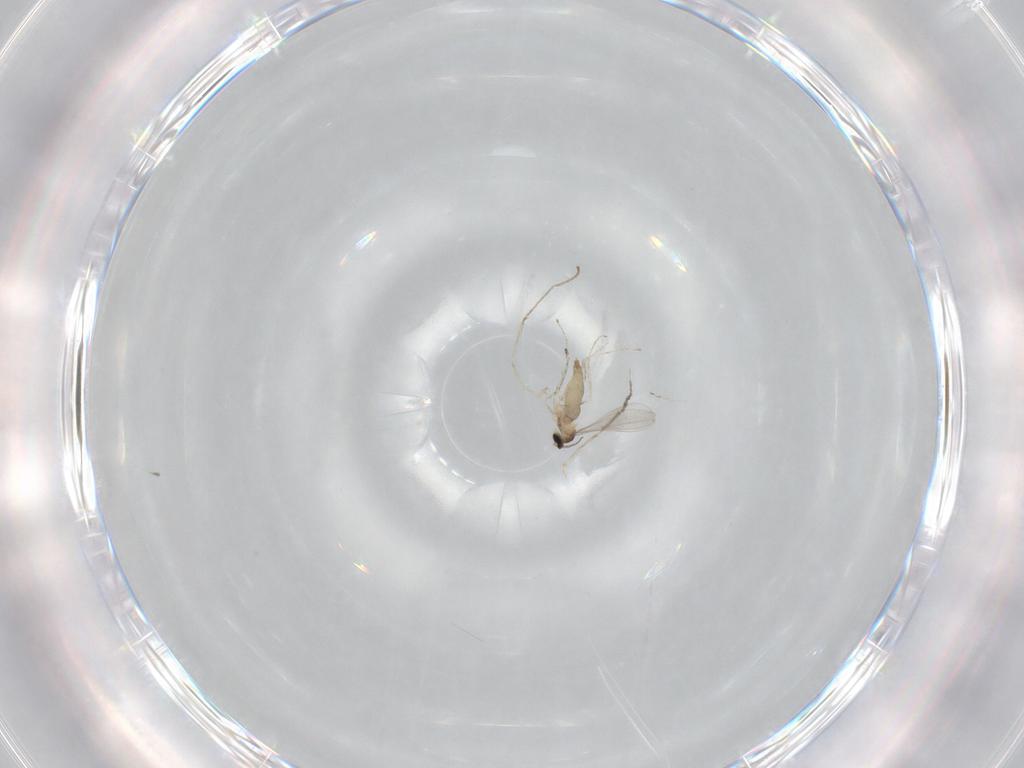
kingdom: Animalia
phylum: Arthropoda
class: Insecta
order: Diptera
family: Cecidomyiidae
